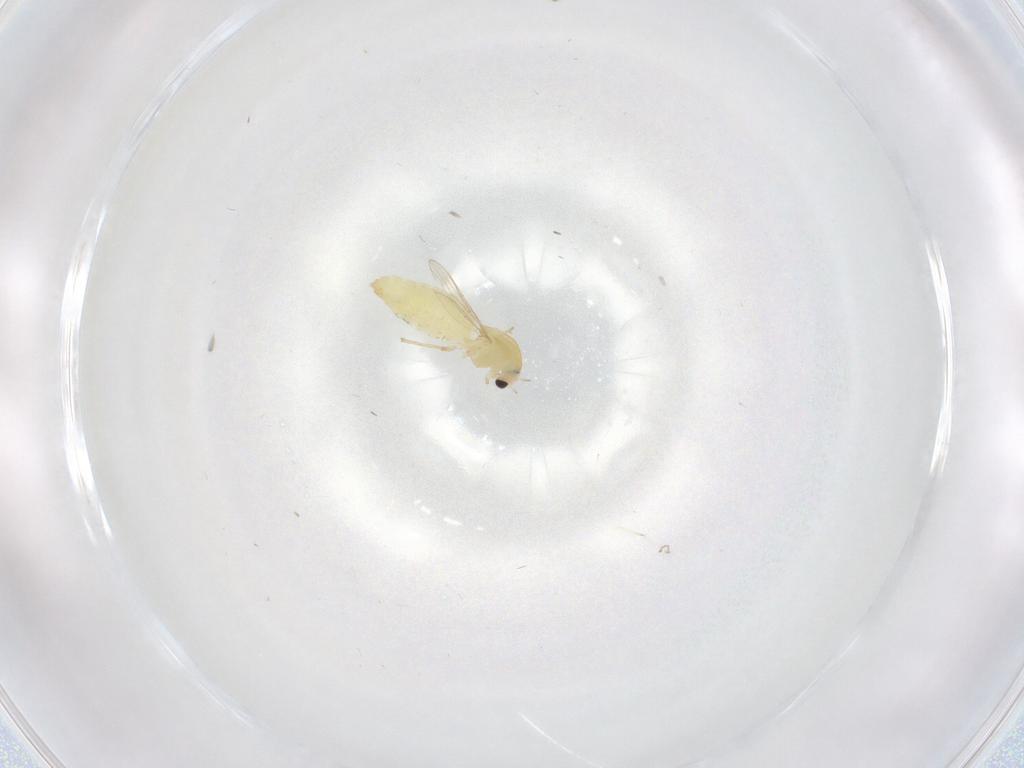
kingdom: Animalia
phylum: Arthropoda
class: Insecta
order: Diptera
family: Chironomidae
